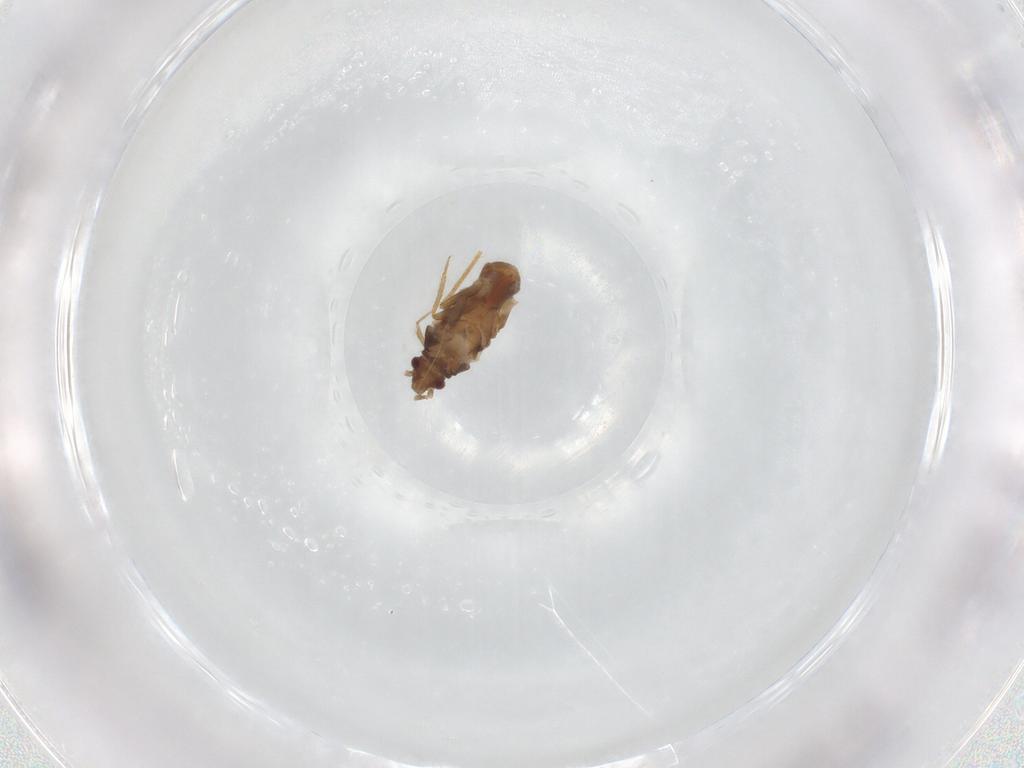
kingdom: Animalia
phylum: Arthropoda
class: Insecta
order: Hemiptera
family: Ceratocombidae
